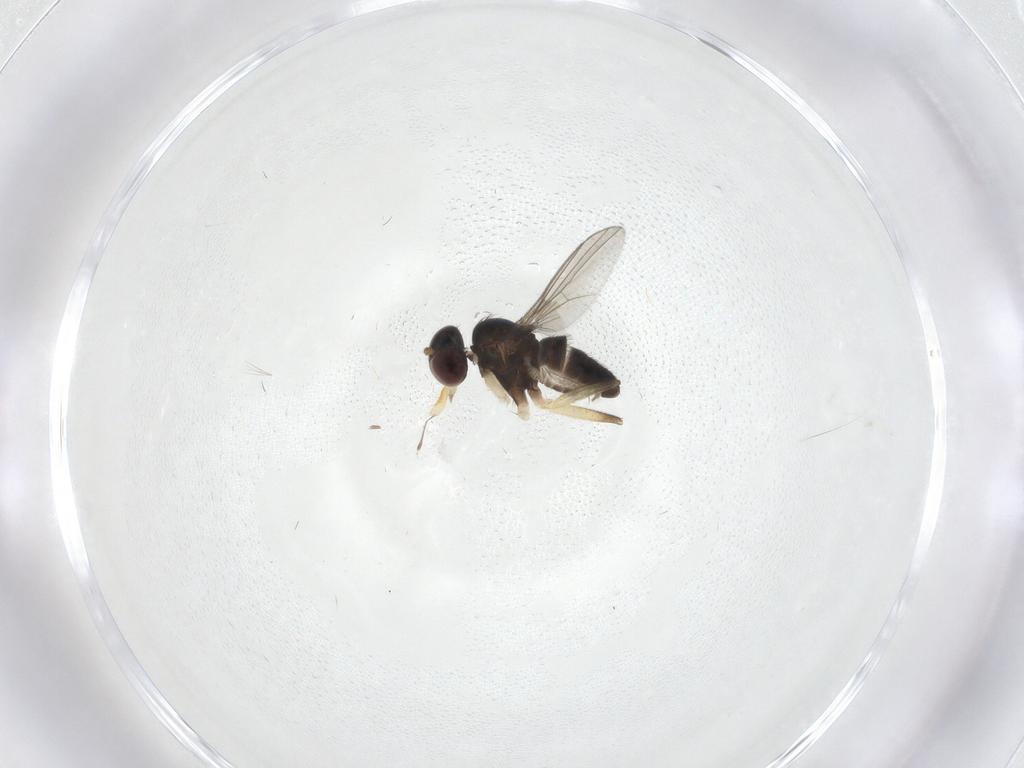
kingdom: Animalia
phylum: Arthropoda
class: Insecta
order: Diptera
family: Dolichopodidae
